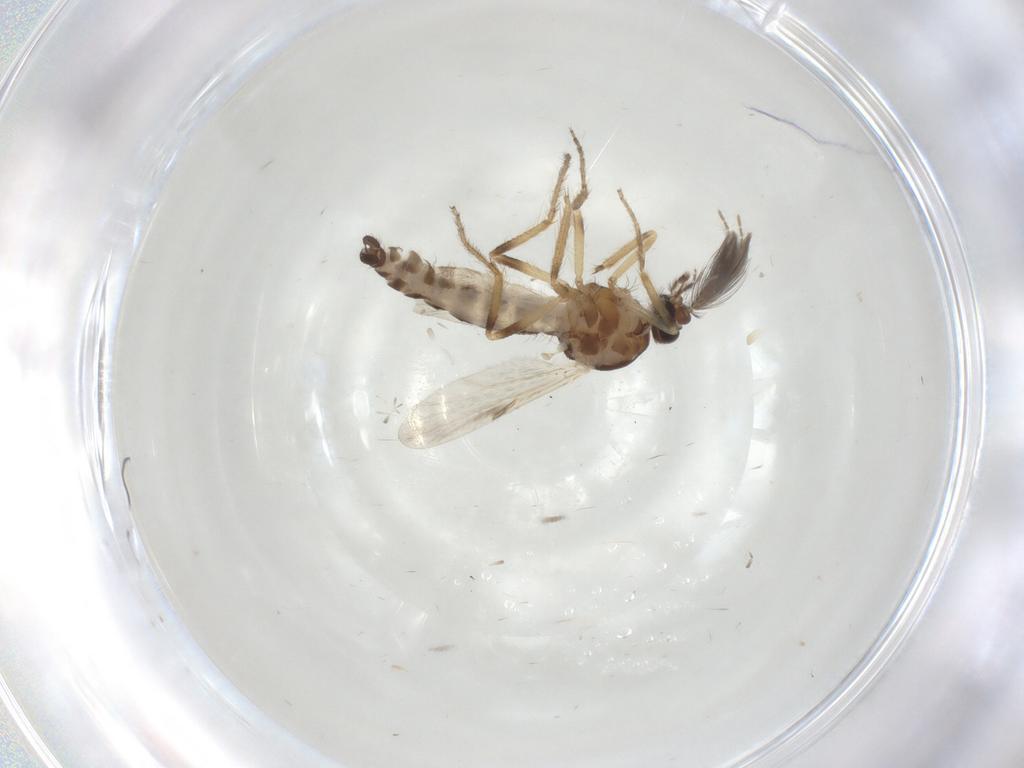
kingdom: Animalia
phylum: Arthropoda
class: Insecta
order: Diptera
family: Ceratopogonidae
